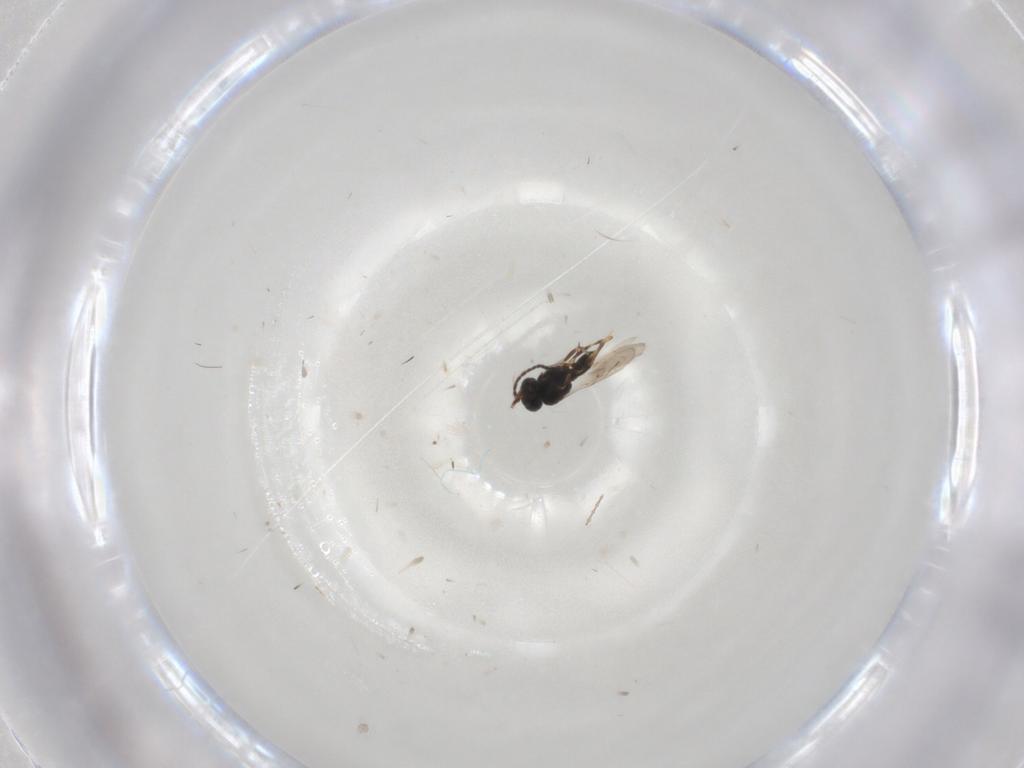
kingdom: Animalia
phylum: Arthropoda
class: Insecta
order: Hymenoptera
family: Scelionidae
